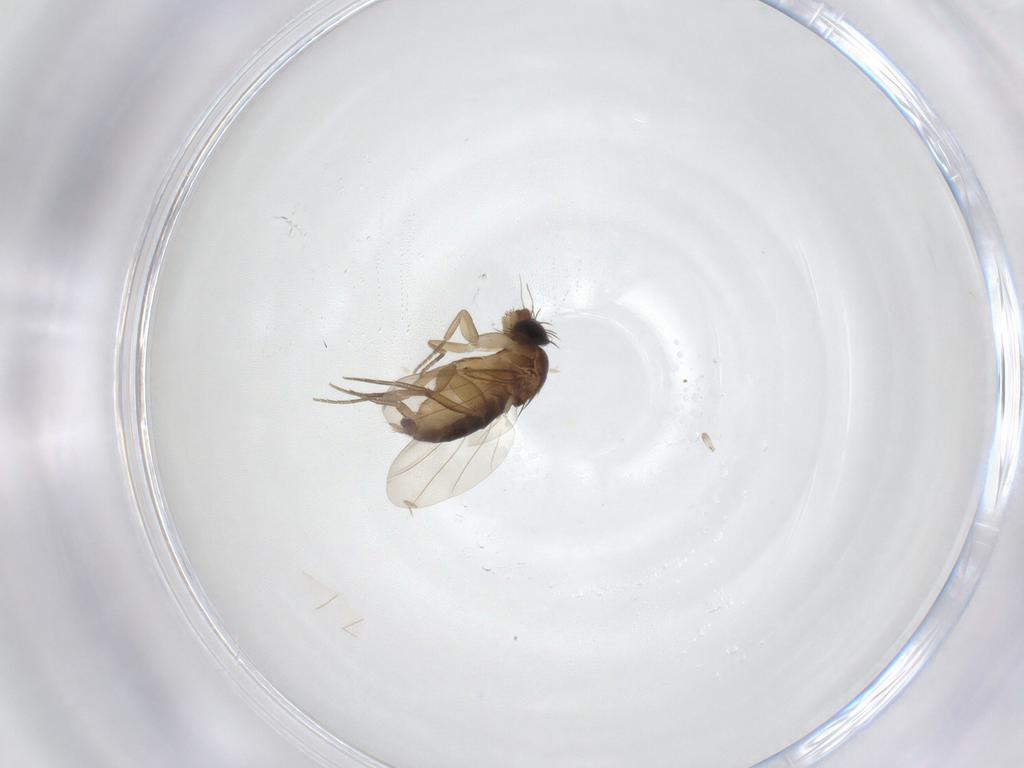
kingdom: Animalia
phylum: Arthropoda
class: Insecta
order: Diptera
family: Phoridae
